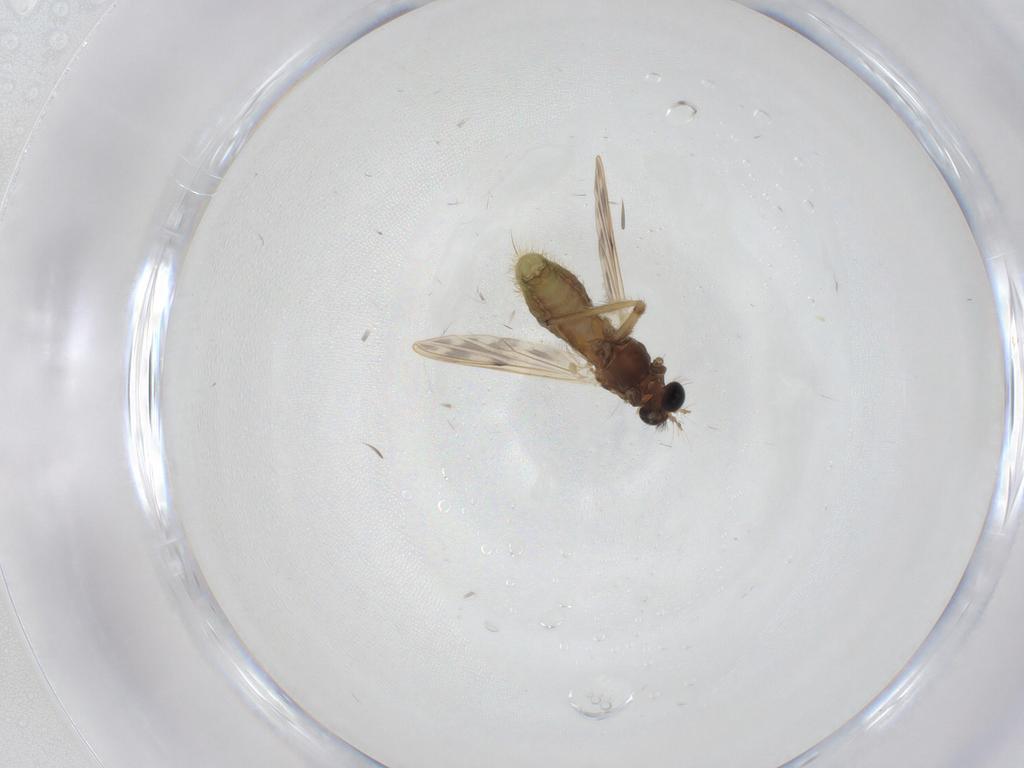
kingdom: Animalia
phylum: Arthropoda
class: Insecta
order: Diptera
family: Chironomidae
